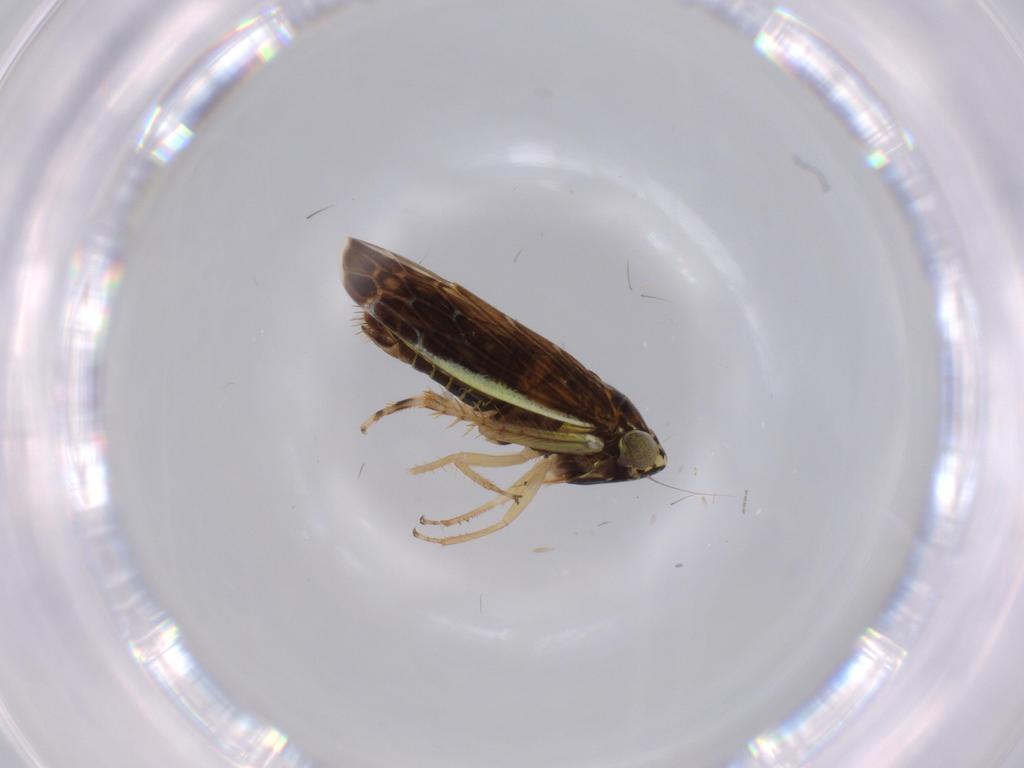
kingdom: Animalia
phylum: Arthropoda
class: Insecta
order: Hemiptera
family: Cicadellidae
